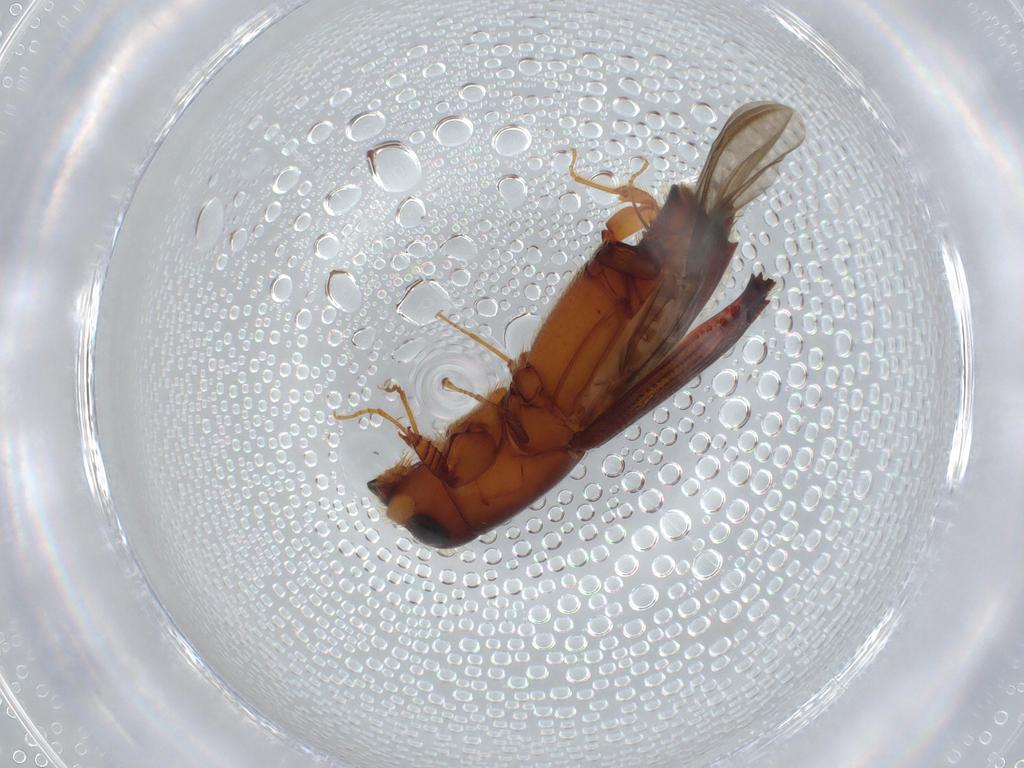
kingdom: Animalia
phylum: Arthropoda
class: Insecta
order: Coleoptera
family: Curculionidae
